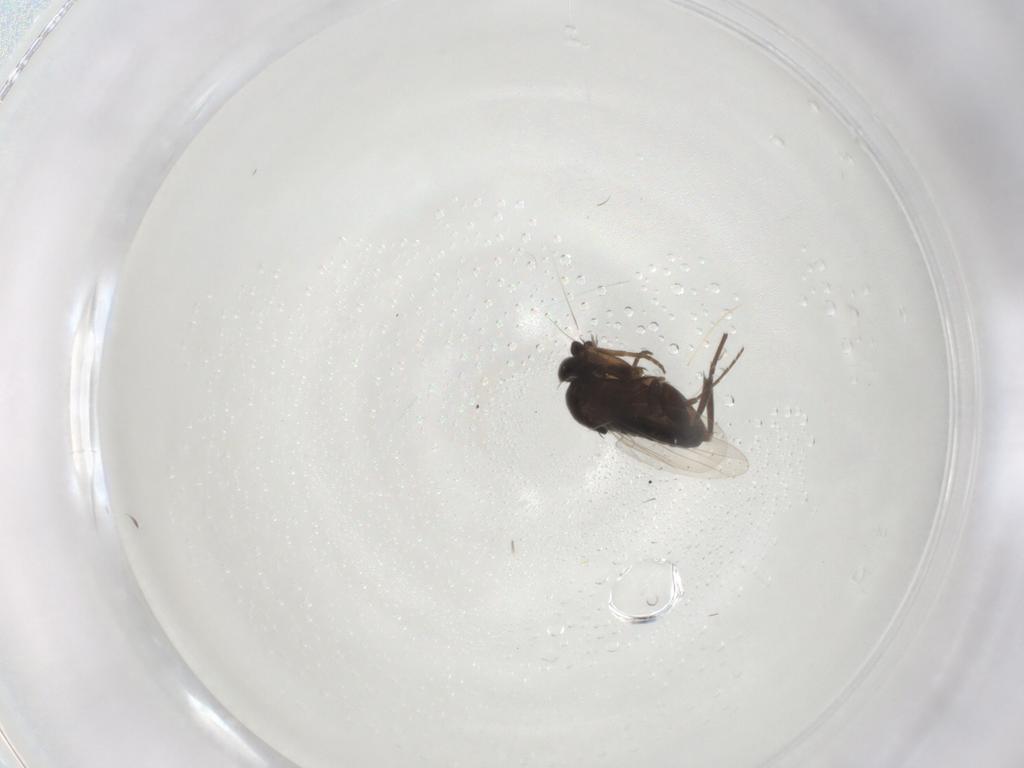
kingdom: Animalia
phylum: Arthropoda
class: Insecta
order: Diptera
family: Phoridae
